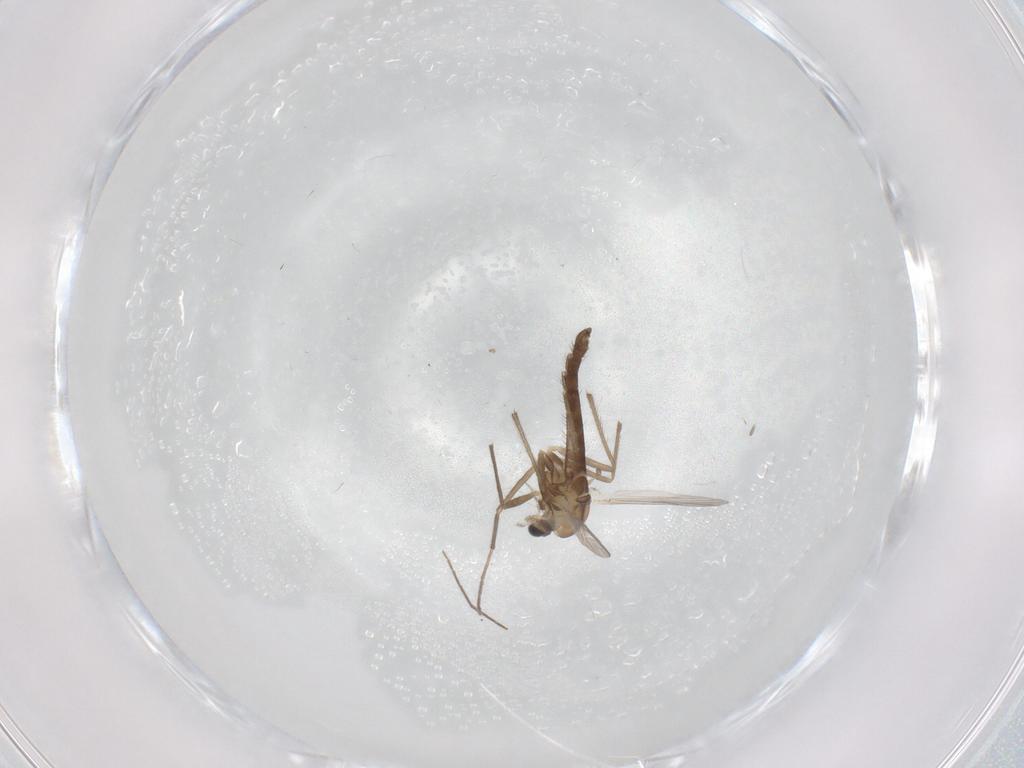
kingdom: Animalia
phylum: Arthropoda
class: Insecta
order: Diptera
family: Chironomidae
